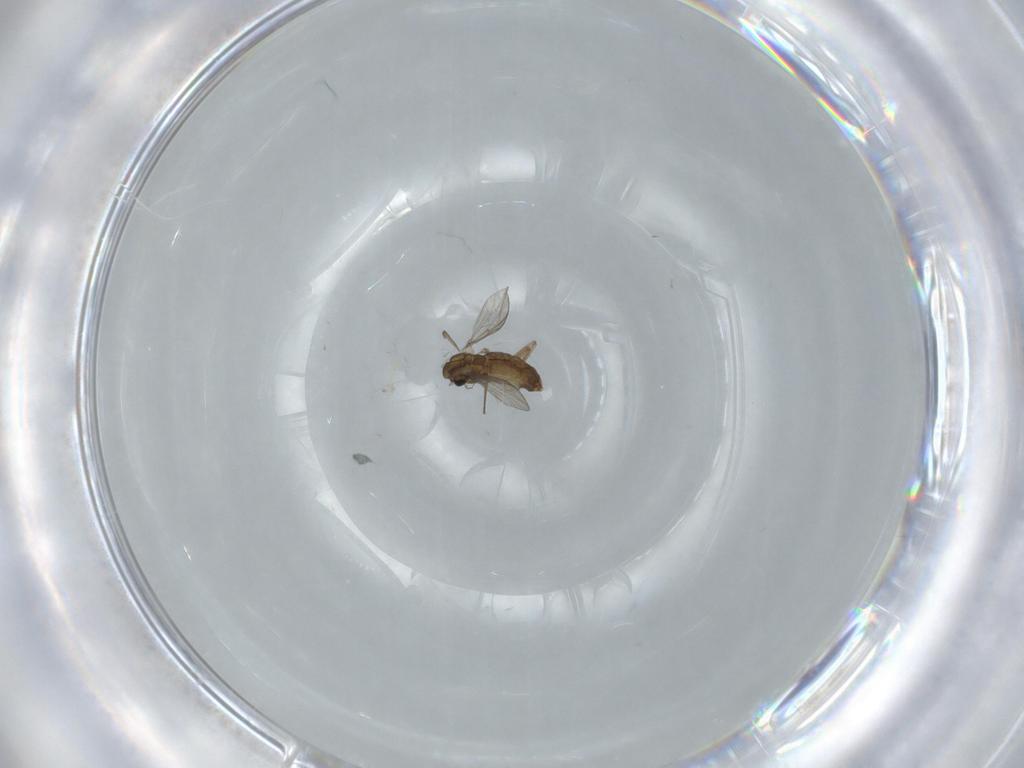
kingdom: Animalia
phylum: Arthropoda
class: Insecta
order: Diptera
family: Chironomidae
